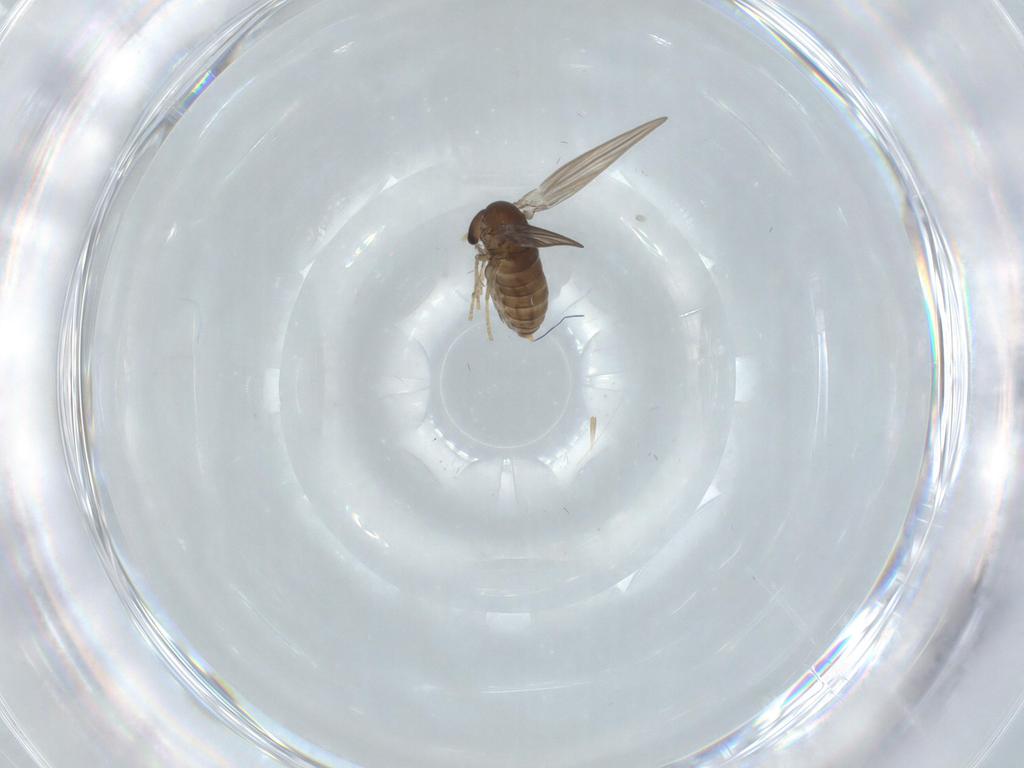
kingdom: Animalia
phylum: Arthropoda
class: Insecta
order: Diptera
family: Psychodidae
